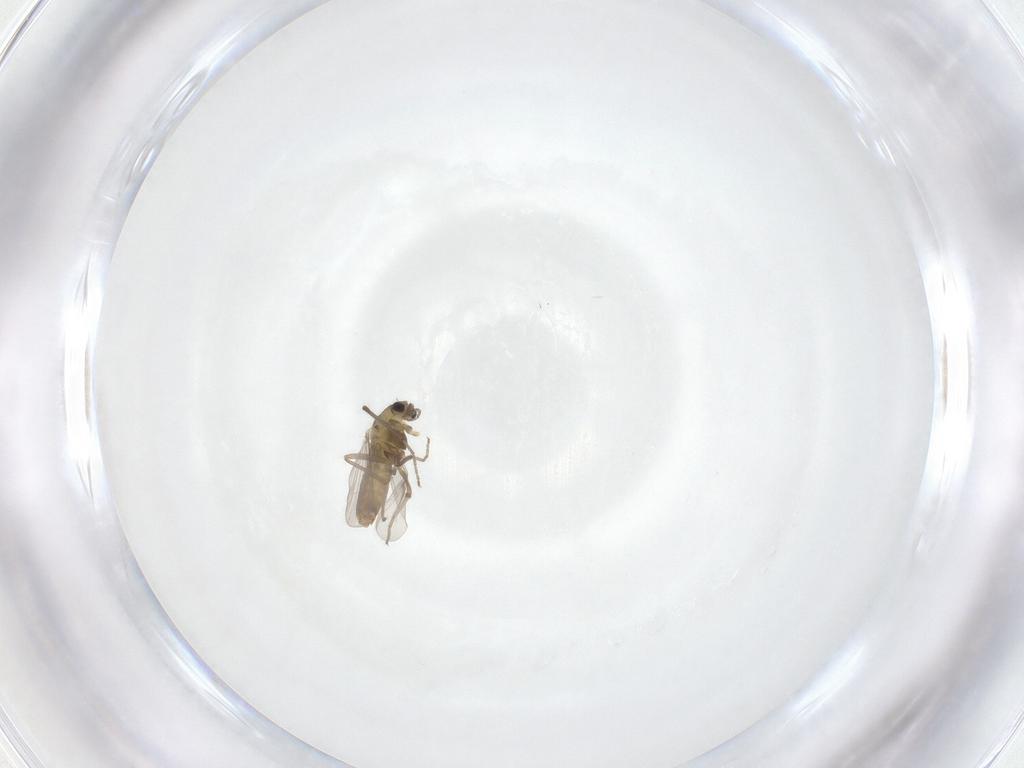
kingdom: Animalia
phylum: Arthropoda
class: Insecta
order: Diptera
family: Chironomidae
